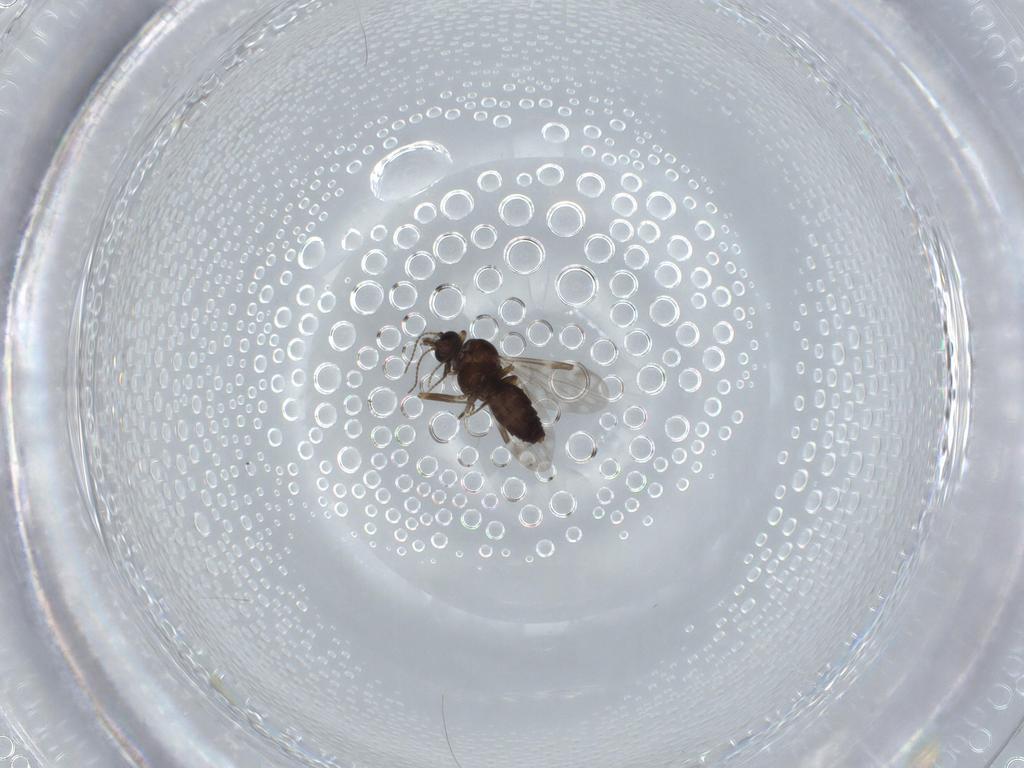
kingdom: Animalia
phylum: Arthropoda
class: Insecta
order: Diptera
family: Ceratopogonidae
